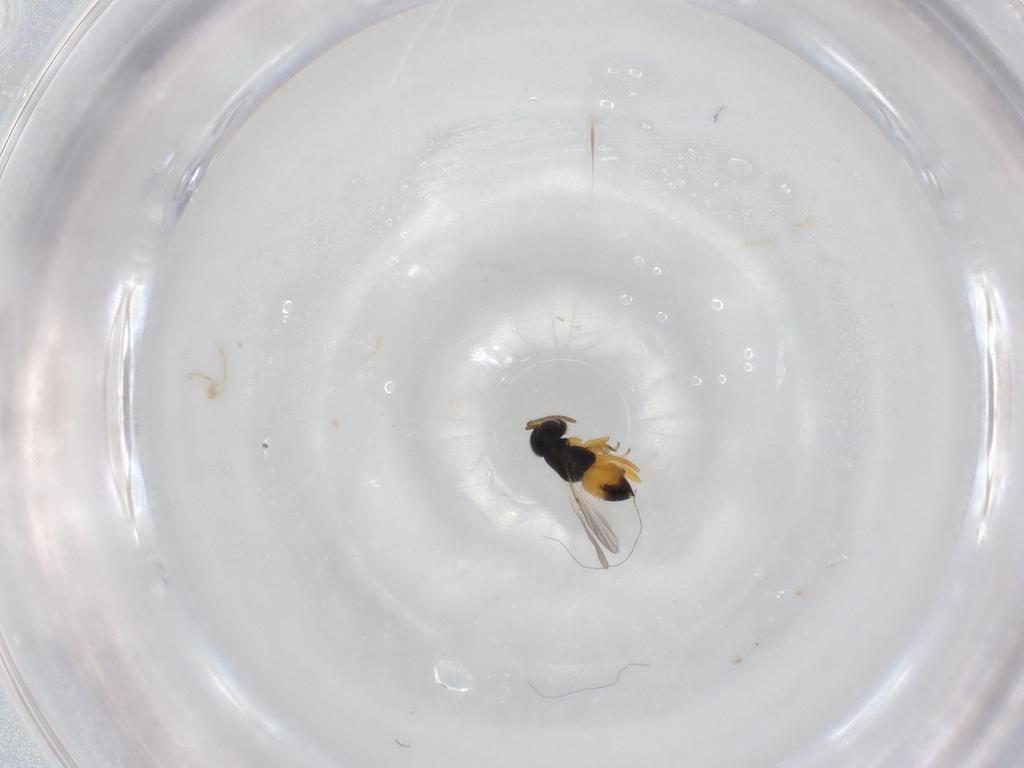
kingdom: Animalia
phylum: Arthropoda
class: Insecta
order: Hymenoptera
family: Encyrtidae
